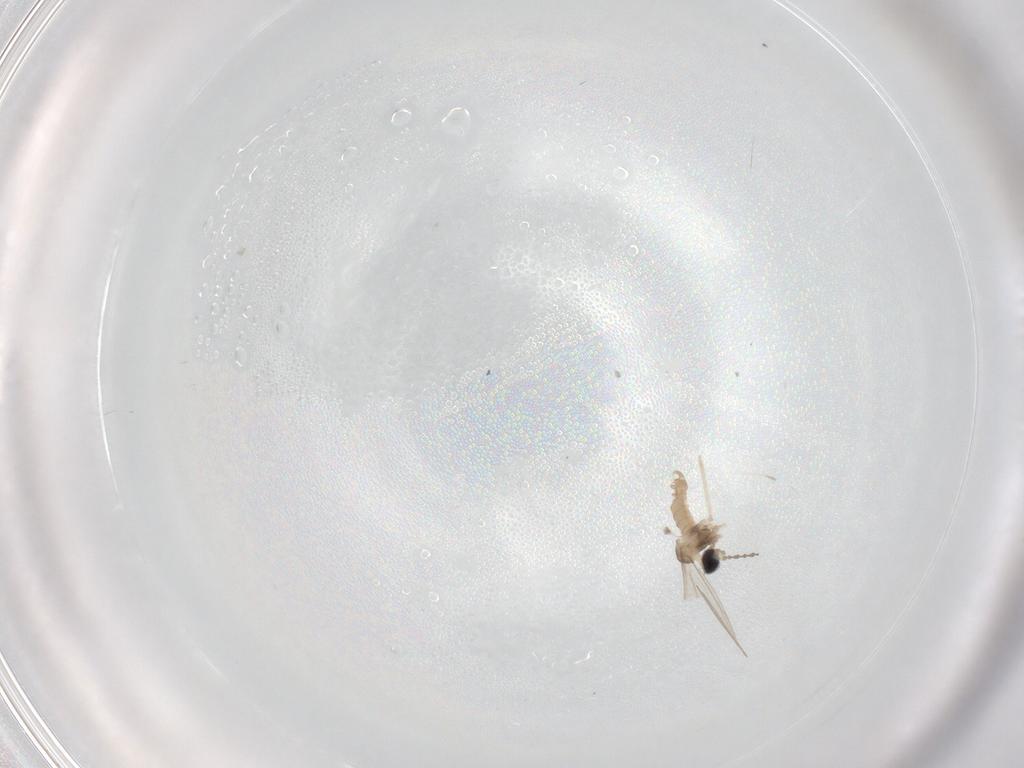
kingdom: Animalia
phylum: Arthropoda
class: Insecta
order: Diptera
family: Cecidomyiidae
